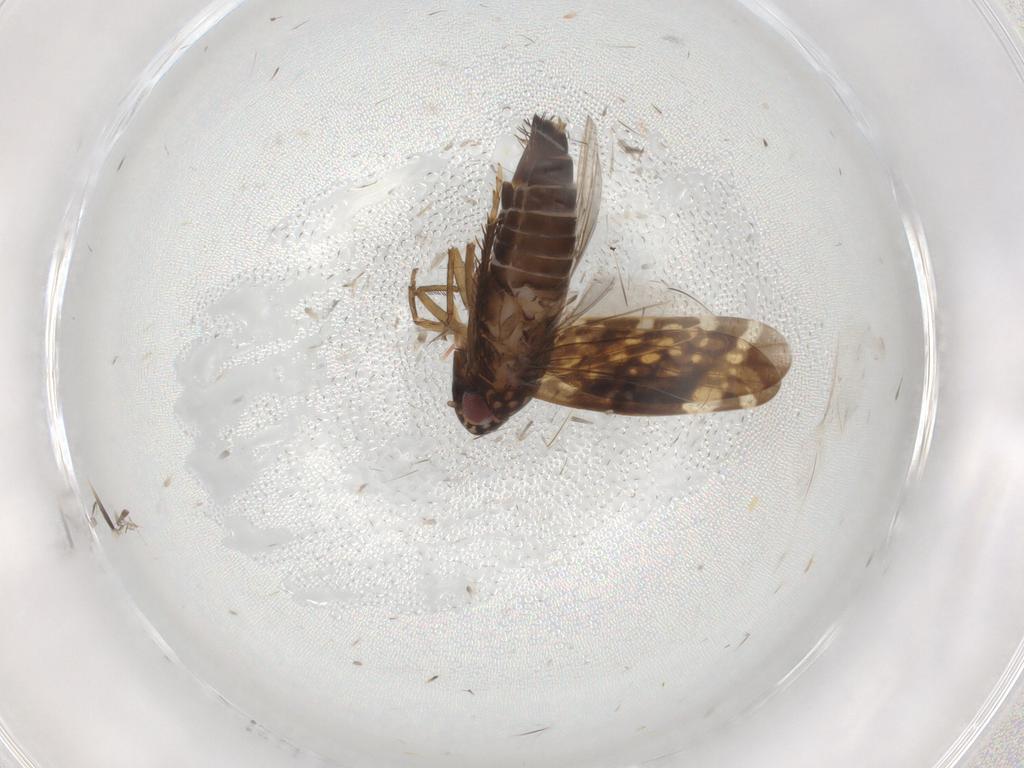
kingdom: Animalia
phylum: Arthropoda
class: Insecta
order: Hemiptera
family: Cicadellidae
